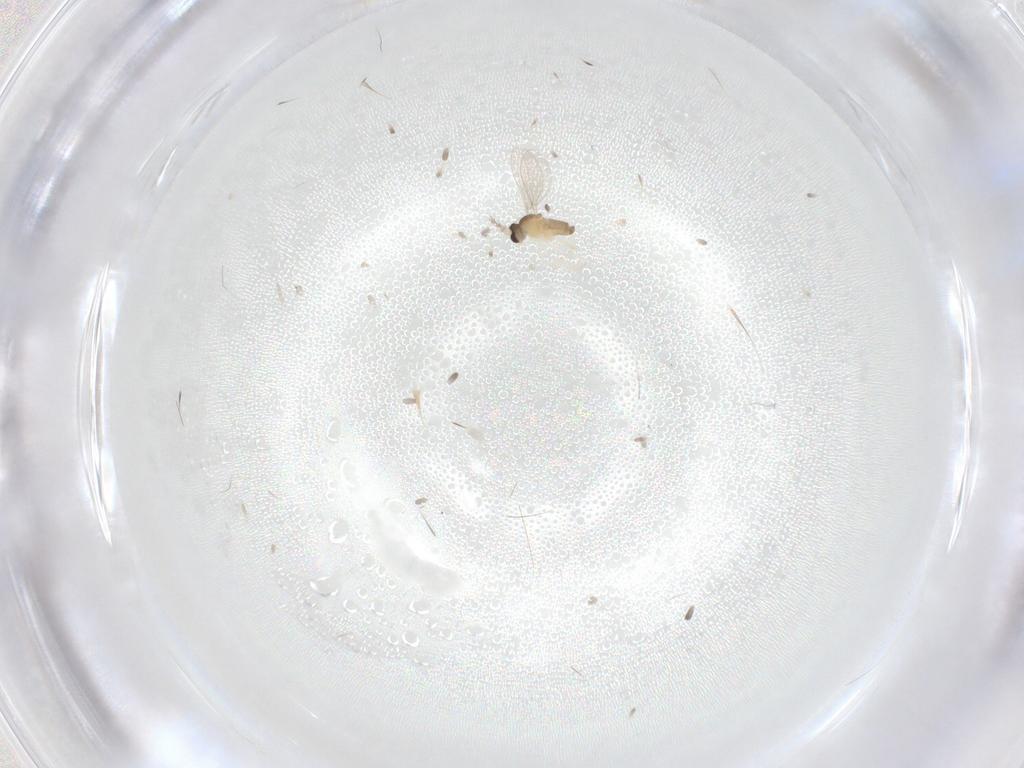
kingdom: Animalia
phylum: Arthropoda
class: Insecta
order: Diptera
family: Cecidomyiidae
